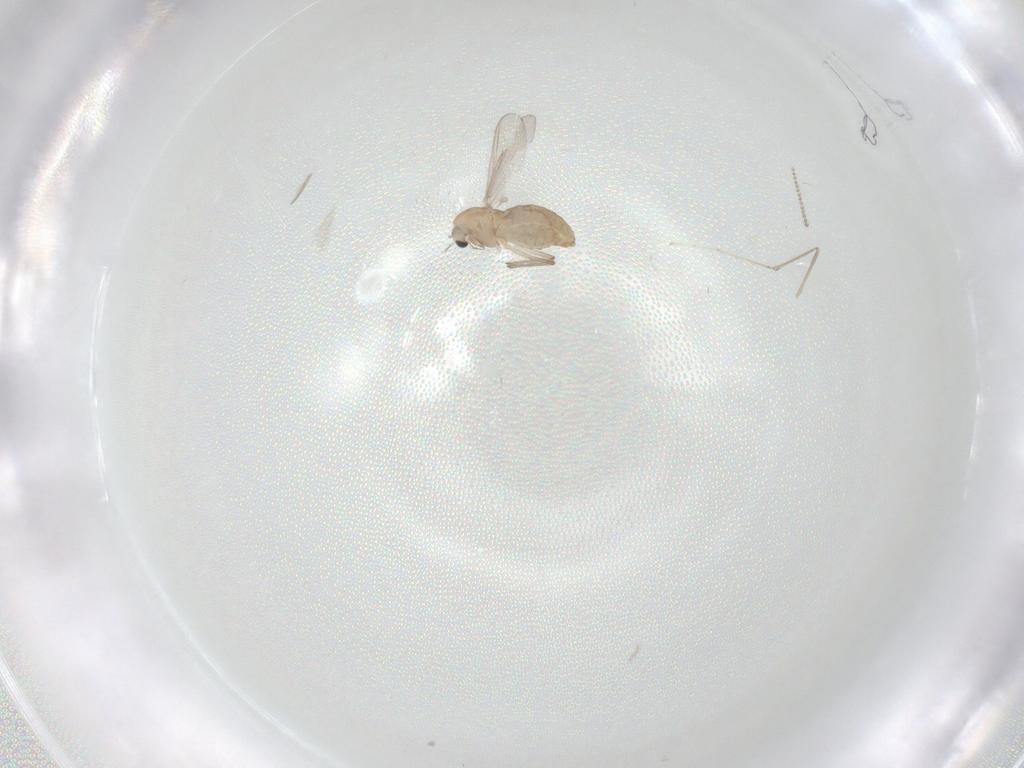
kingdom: Animalia
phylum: Arthropoda
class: Insecta
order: Diptera
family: Chironomidae
